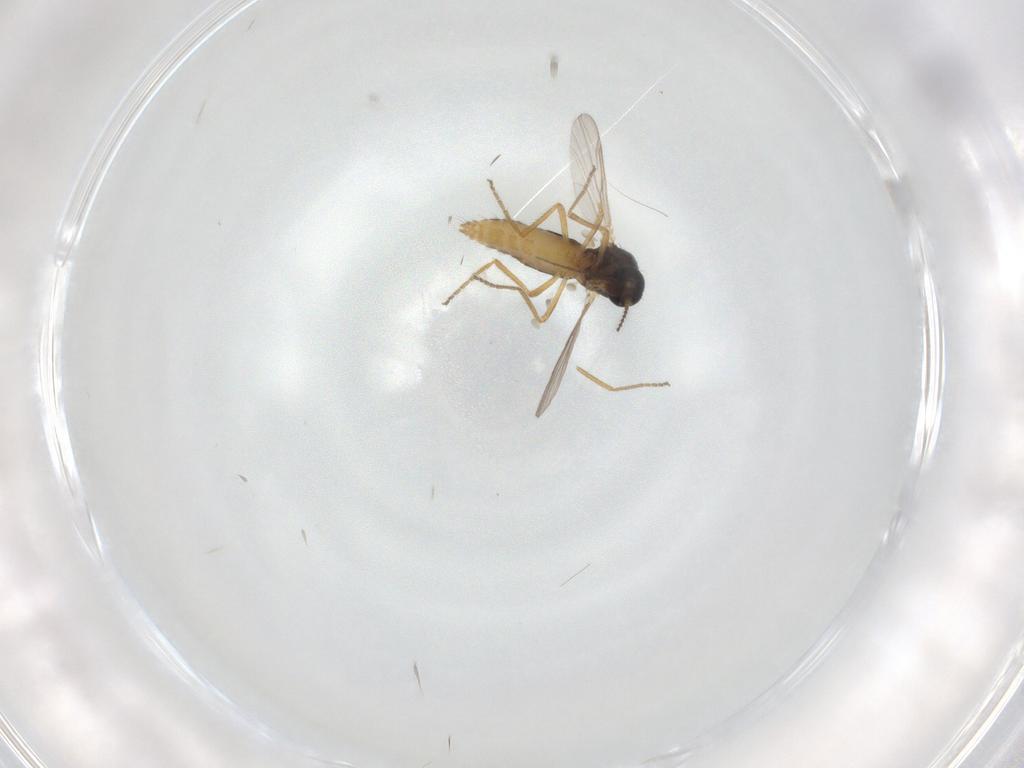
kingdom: Animalia
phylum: Arthropoda
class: Insecta
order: Diptera
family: Ceratopogonidae
